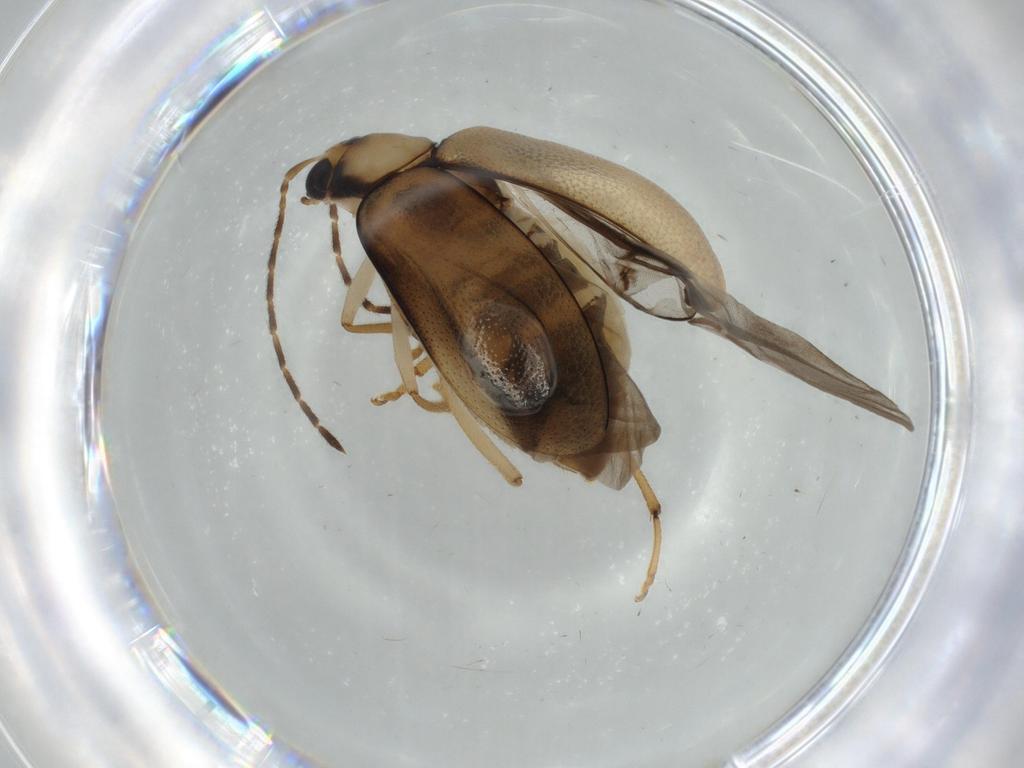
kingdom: Animalia
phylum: Arthropoda
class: Insecta
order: Coleoptera
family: Chrysomelidae
